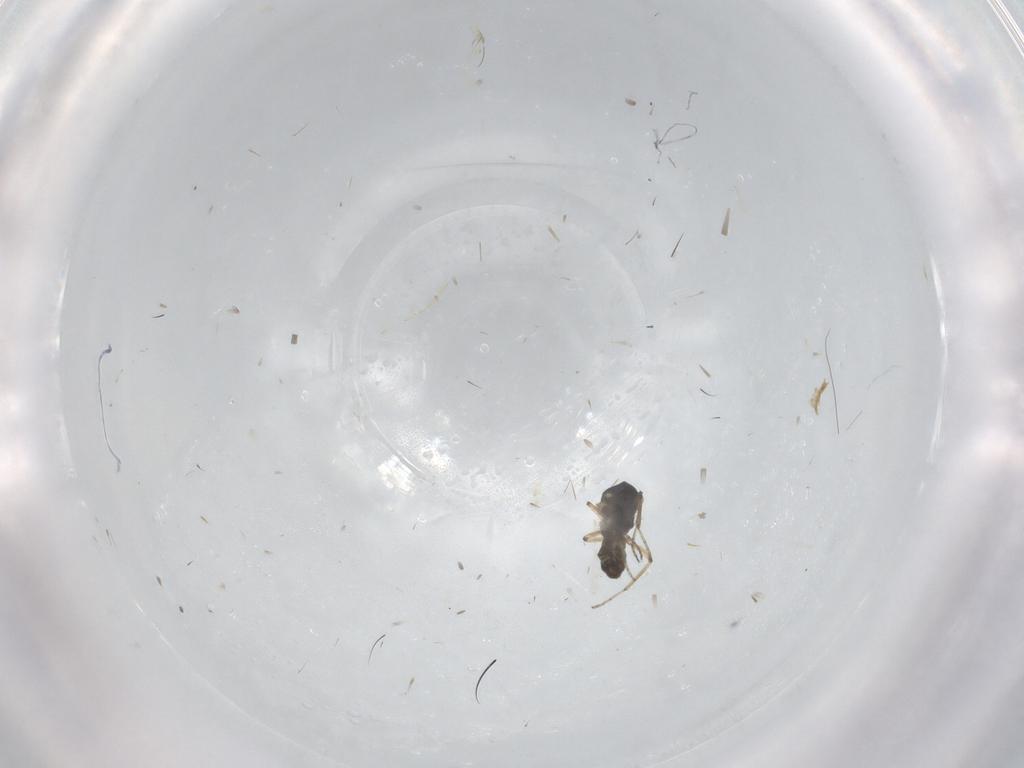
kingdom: Animalia
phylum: Arthropoda
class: Insecta
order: Diptera
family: Ceratopogonidae
